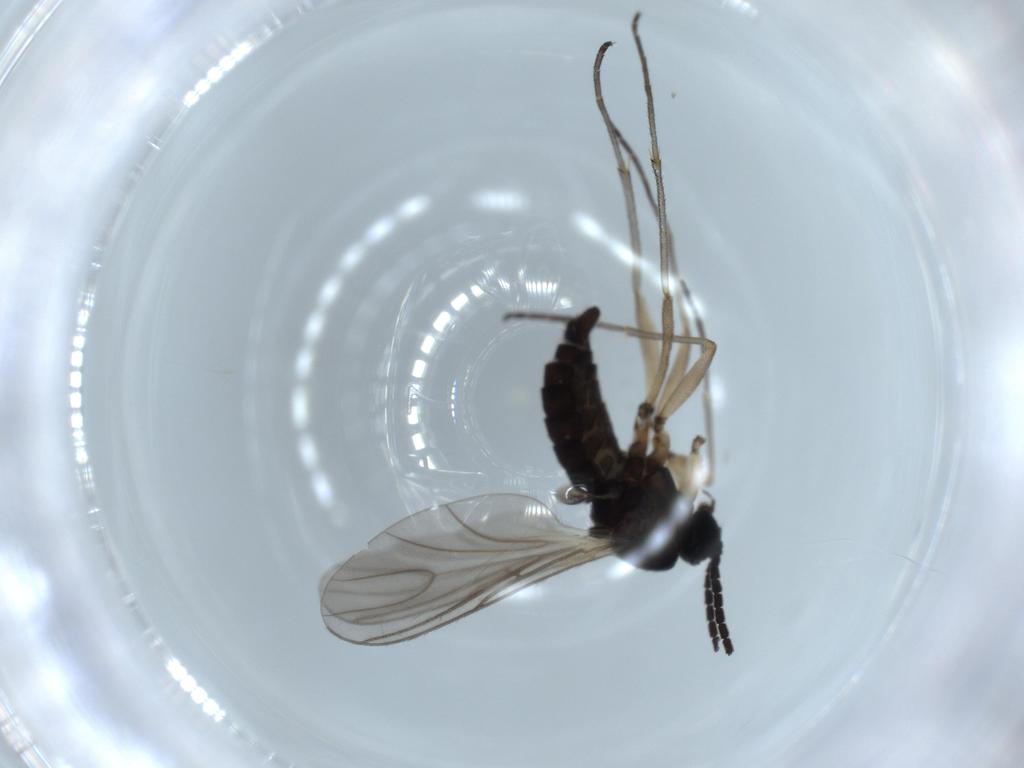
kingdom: Animalia
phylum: Arthropoda
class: Insecta
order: Diptera
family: Sciaridae
